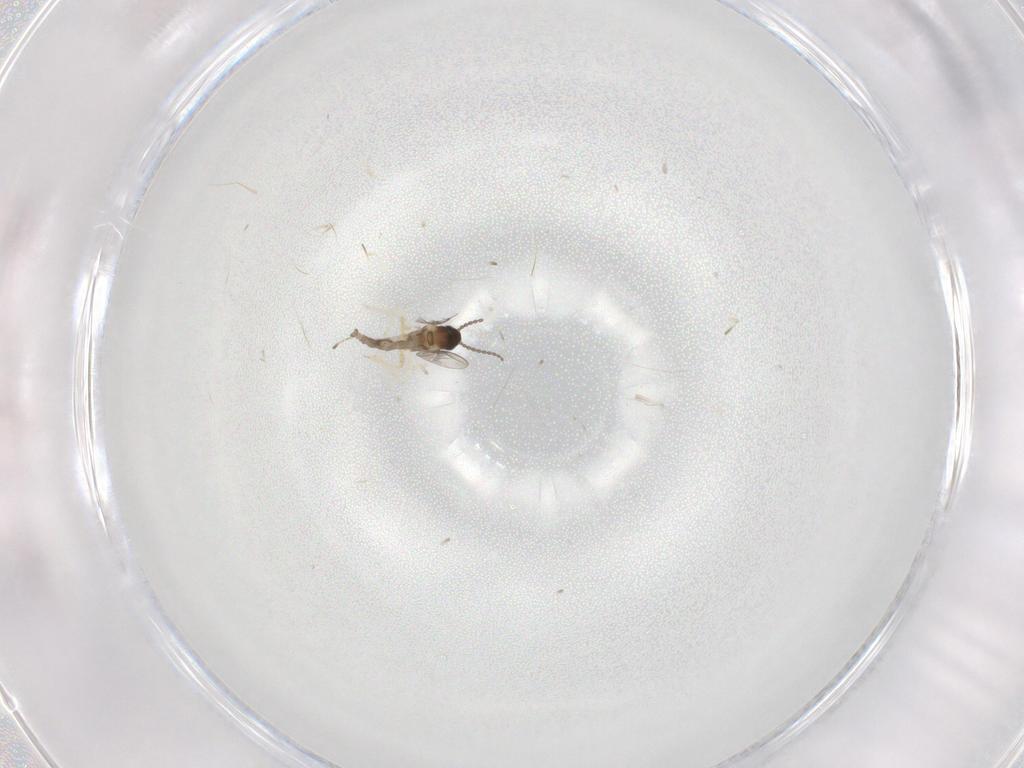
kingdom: Animalia
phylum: Arthropoda
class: Insecta
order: Diptera
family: Cecidomyiidae
